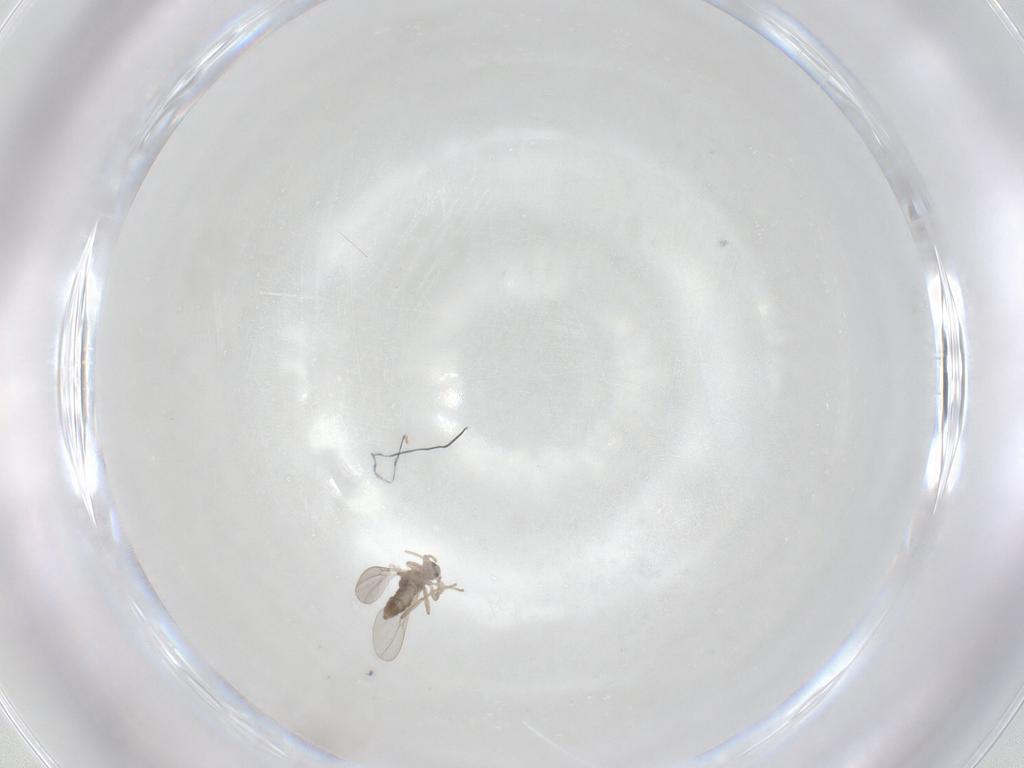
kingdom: Animalia
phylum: Arthropoda
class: Insecta
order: Diptera
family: Cecidomyiidae
